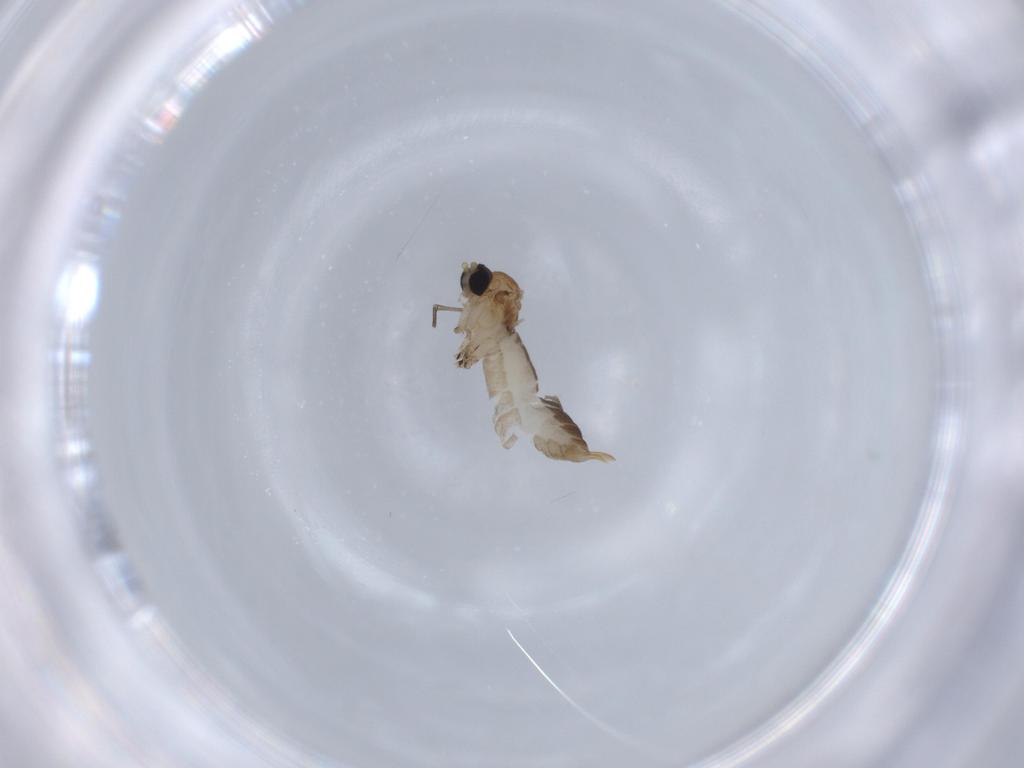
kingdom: Animalia
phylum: Arthropoda
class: Insecta
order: Diptera
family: Sciaridae
